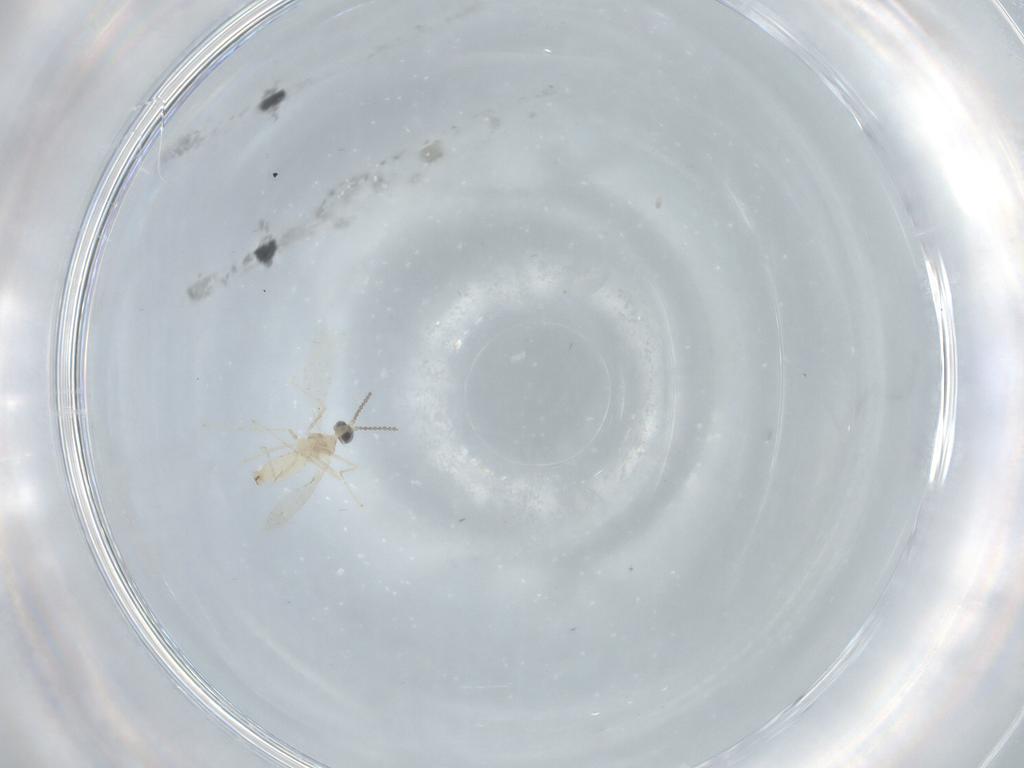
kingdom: Animalia
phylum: Arthropoda
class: Insecta
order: Diptera
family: Cecidomyiidae
